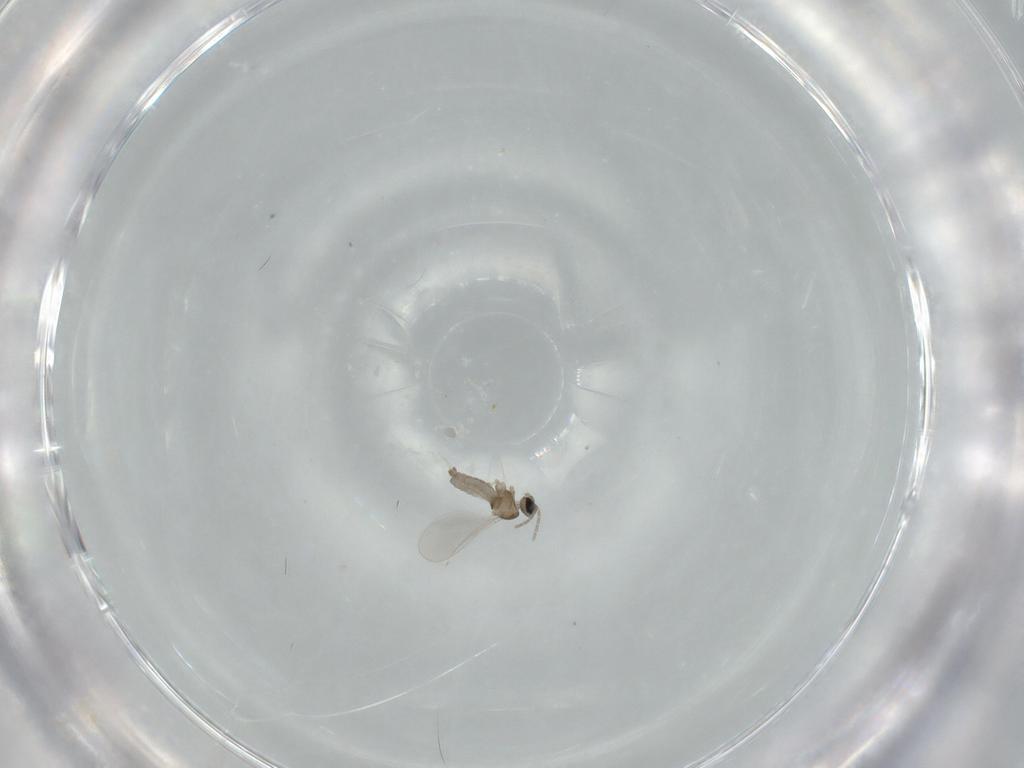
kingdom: Animalia
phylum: Arthropoda
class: Insecta
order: Diptera
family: Cecidomyiidae
